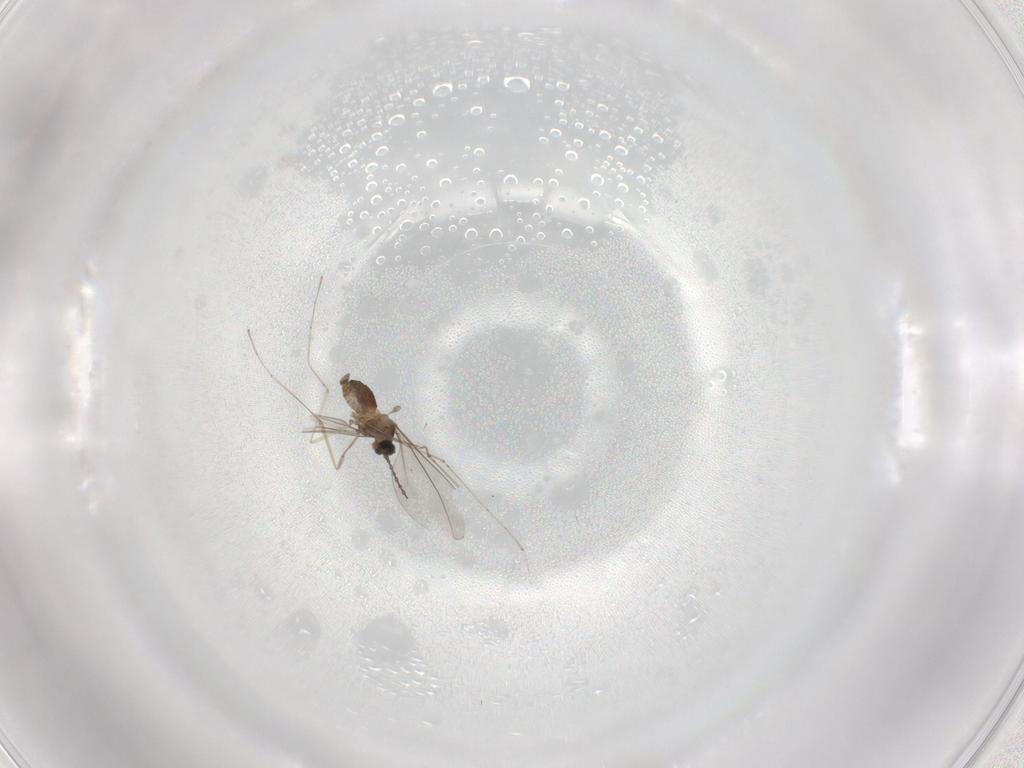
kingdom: Animalia
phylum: Arthropoda
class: Insecta
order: Diptera
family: Cecidomyiidae
